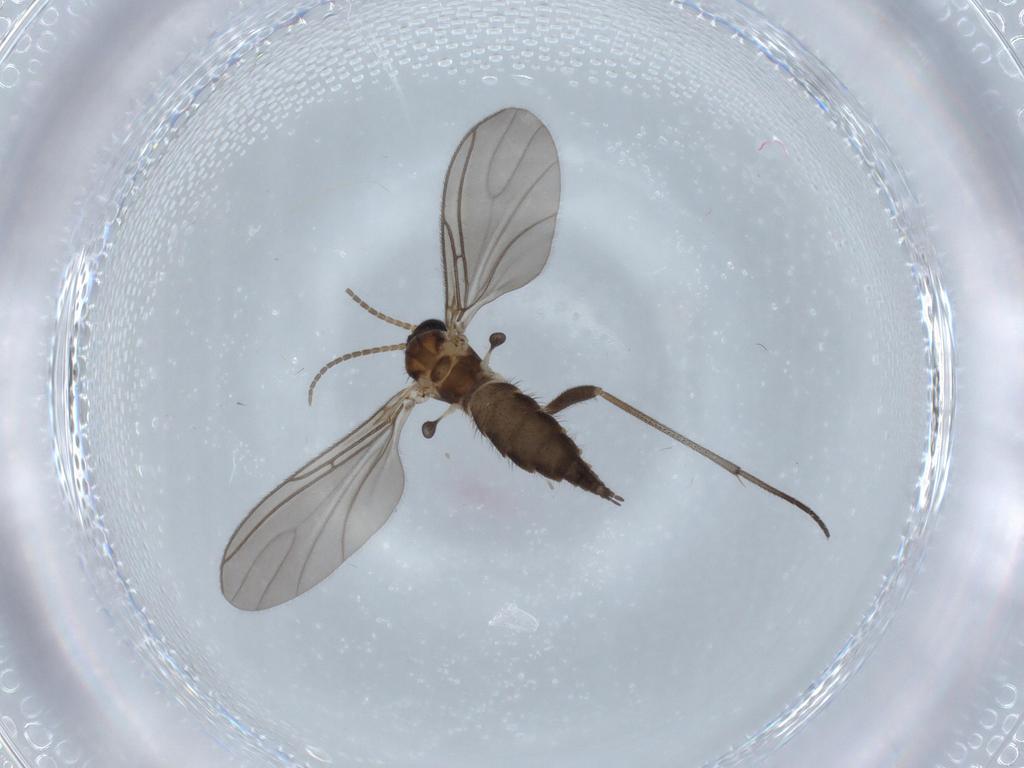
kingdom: Animalia
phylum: Arthropoda
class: Insecta
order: Diptera
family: Sciaridae
